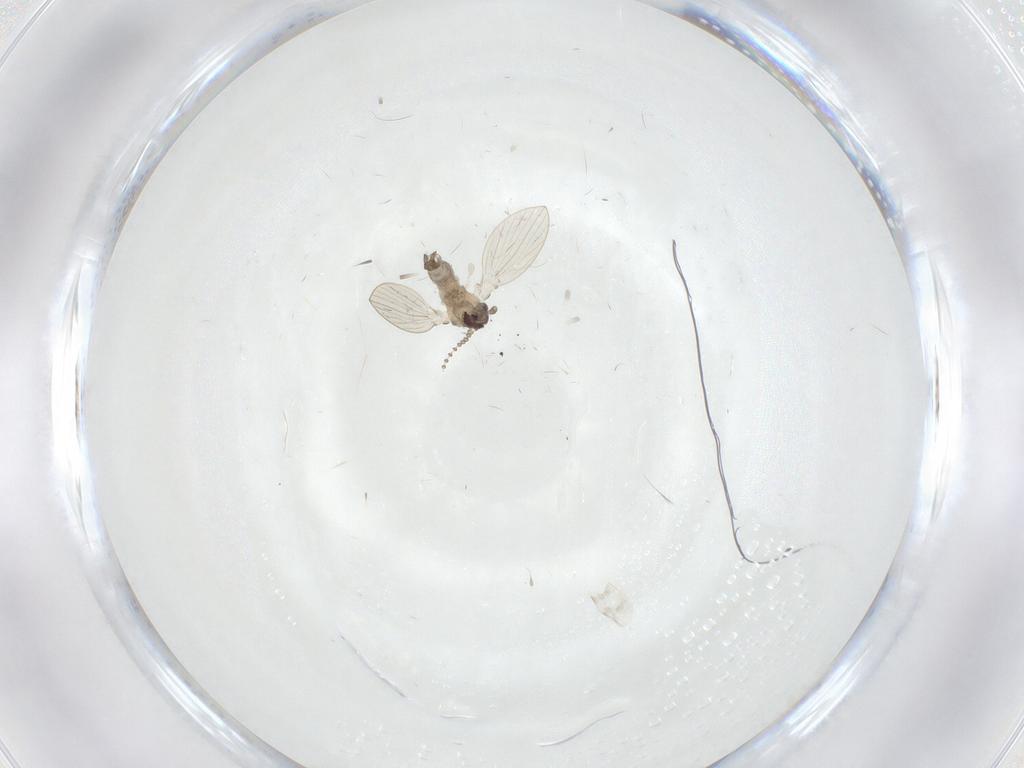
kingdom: Animalia
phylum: Arthropoda
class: Insecta
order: Diptera
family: Psychodidae
